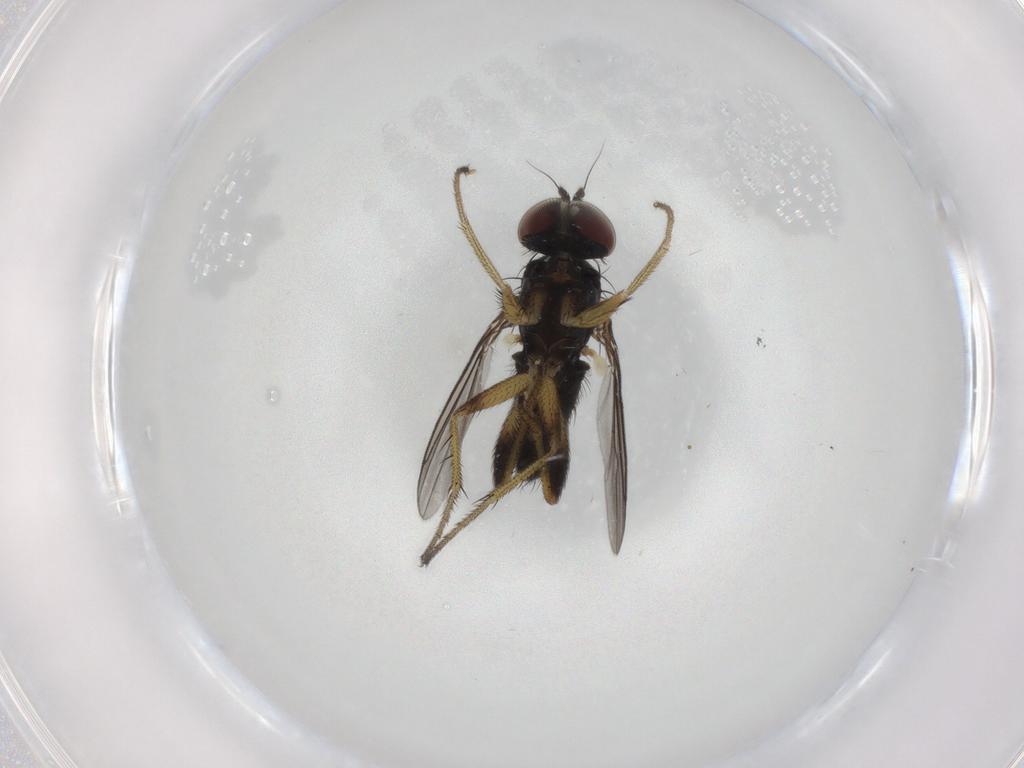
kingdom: Animalia
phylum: Arthropoda
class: Insecta
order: Diptera
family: Dolichopodidae
